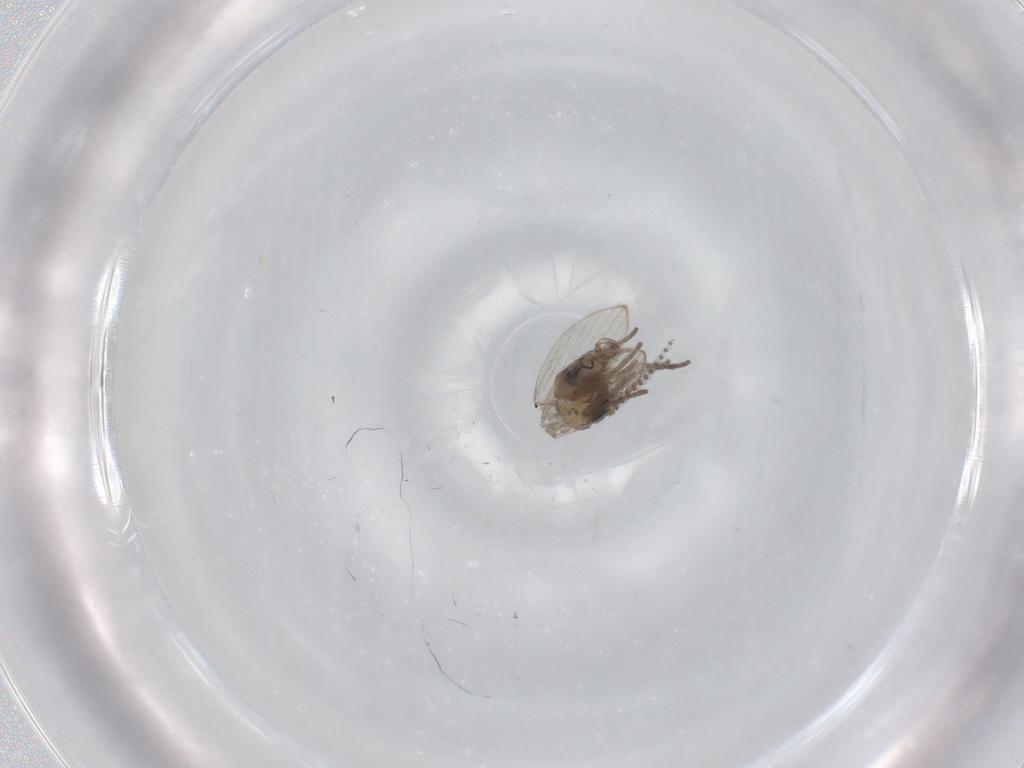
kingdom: Animalia
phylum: Arthropoda
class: Insecta
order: Diptera
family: Psychodidae
